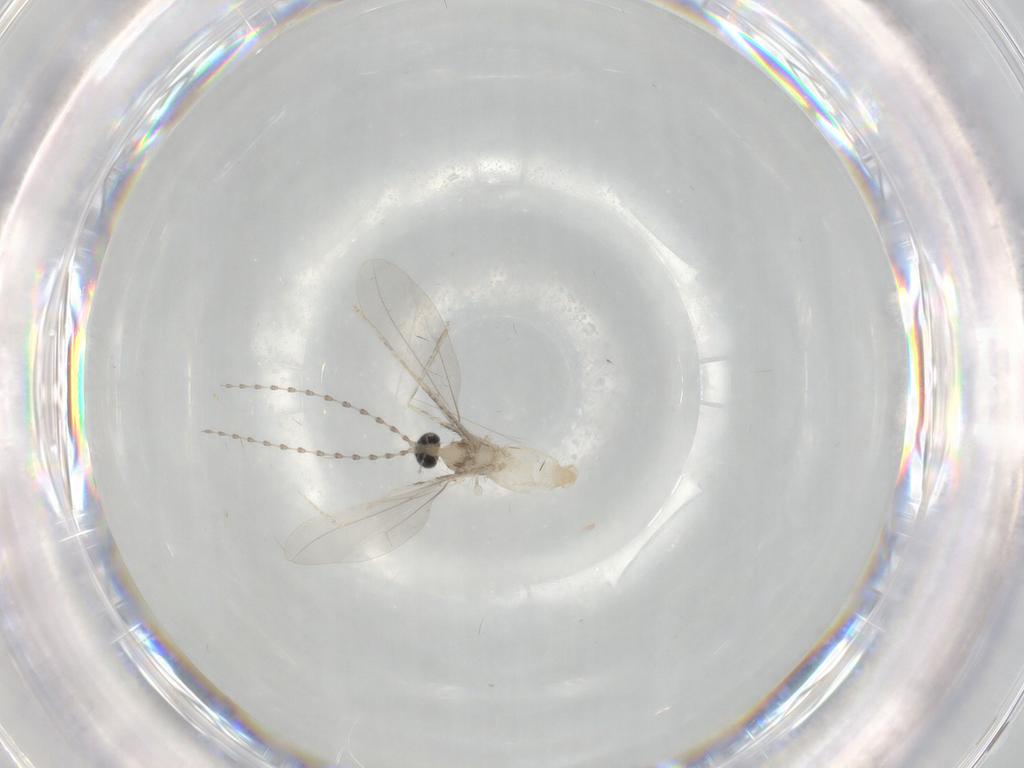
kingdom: Animalia
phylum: Arthropoda
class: Insecta
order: Diptera
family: Cecidomyiidae
